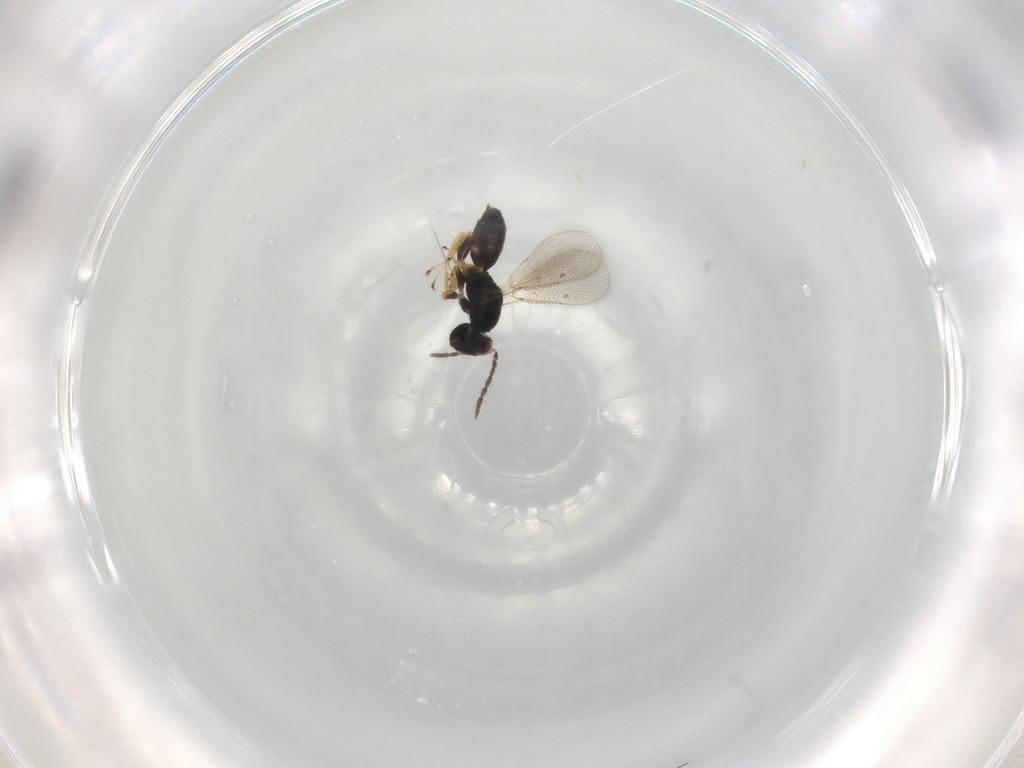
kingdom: Animalia
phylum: Arthropoda
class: Insecta
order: Hymenoptera
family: Eulophidae
